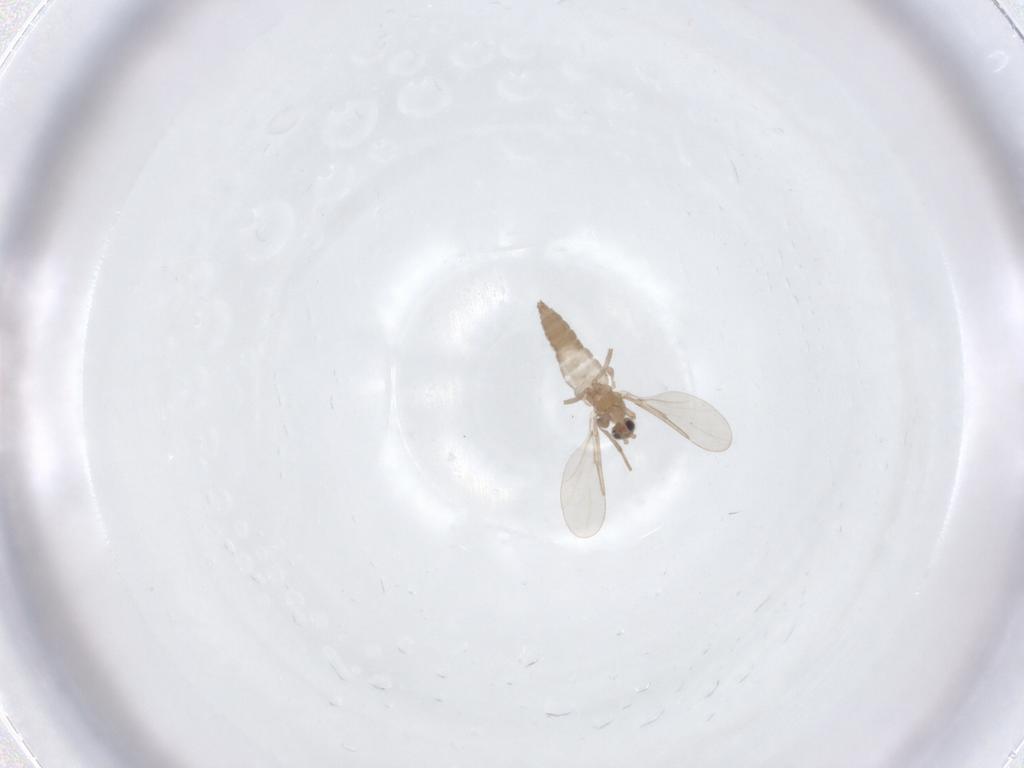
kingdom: Animalia
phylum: Arthropoda
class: Insecta
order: Diptera
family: Cecidomyiidae
